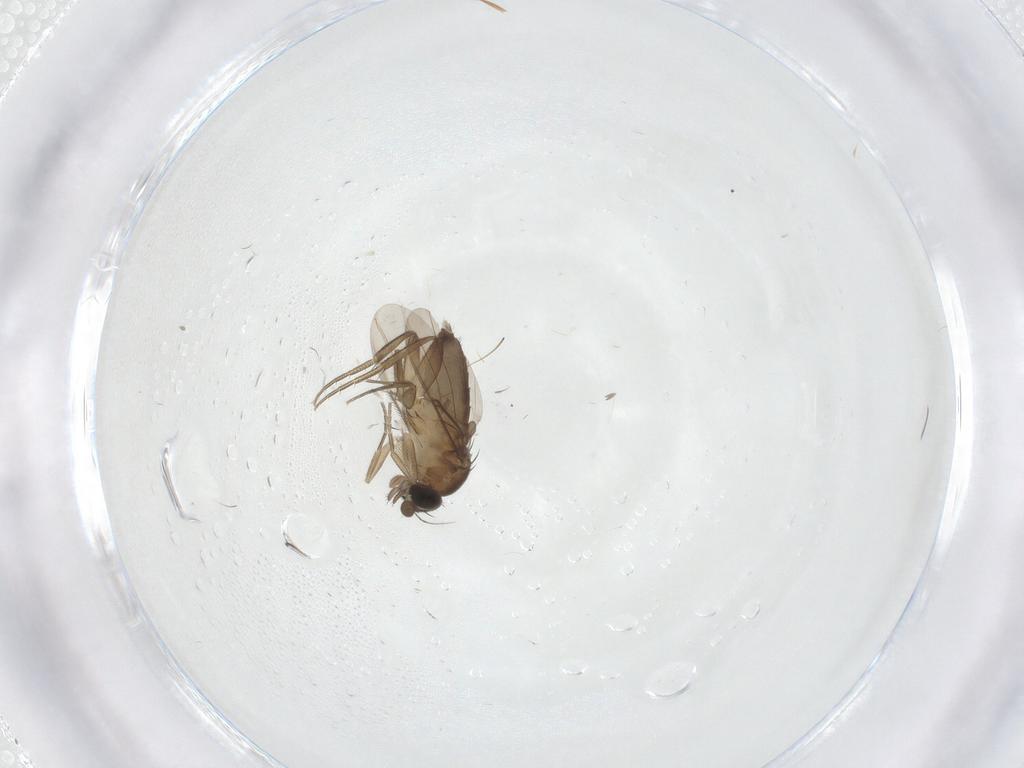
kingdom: Animalia
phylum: Arthropoda
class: Insecta
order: Diptera
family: Phoridae
